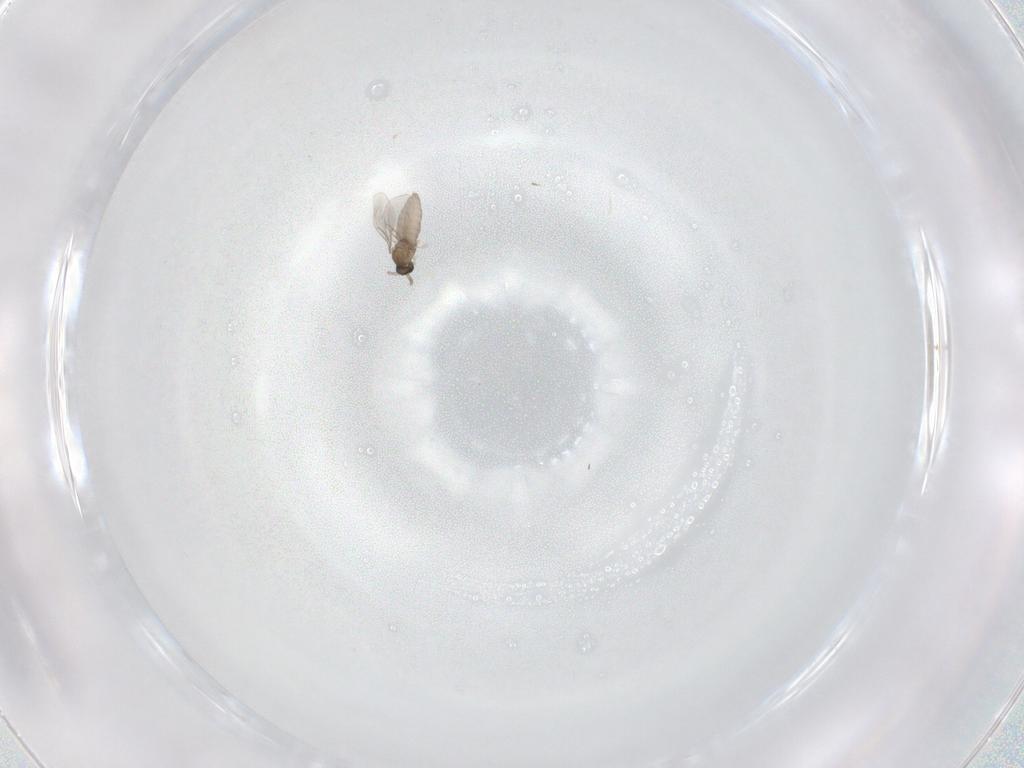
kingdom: Animalia
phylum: Arthropoda
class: Insecta
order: Diptera
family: Cecidomyiidae
